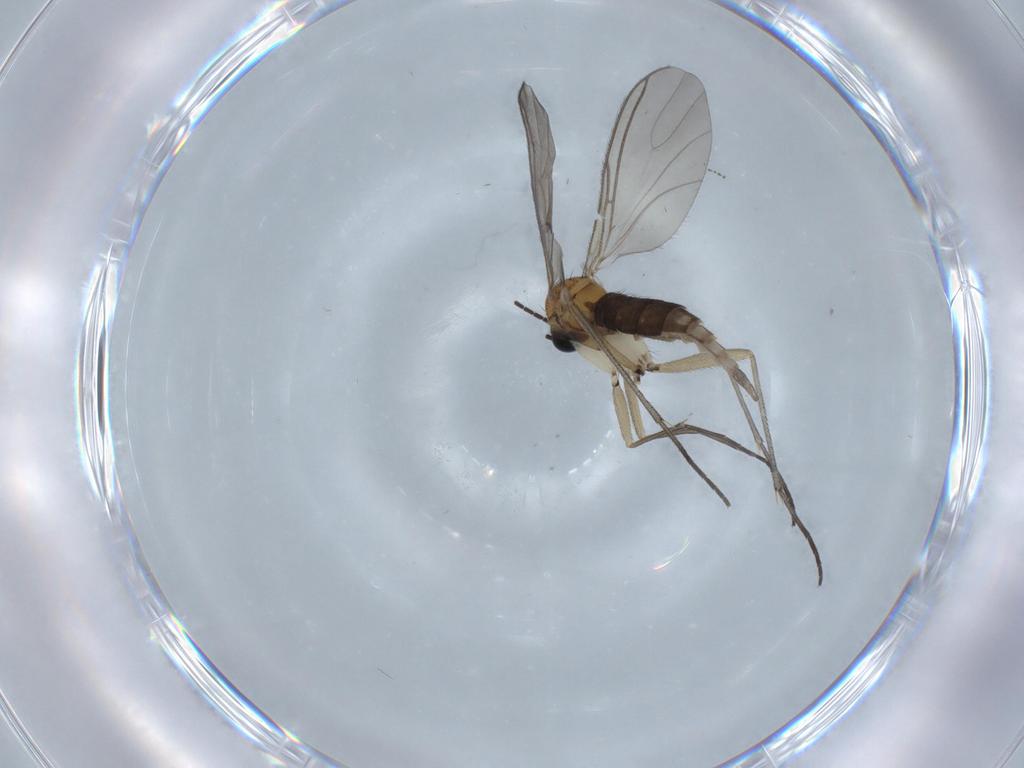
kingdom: Animalia
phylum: Arthropoda
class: Insecta
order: Diptera
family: Sciaridae
